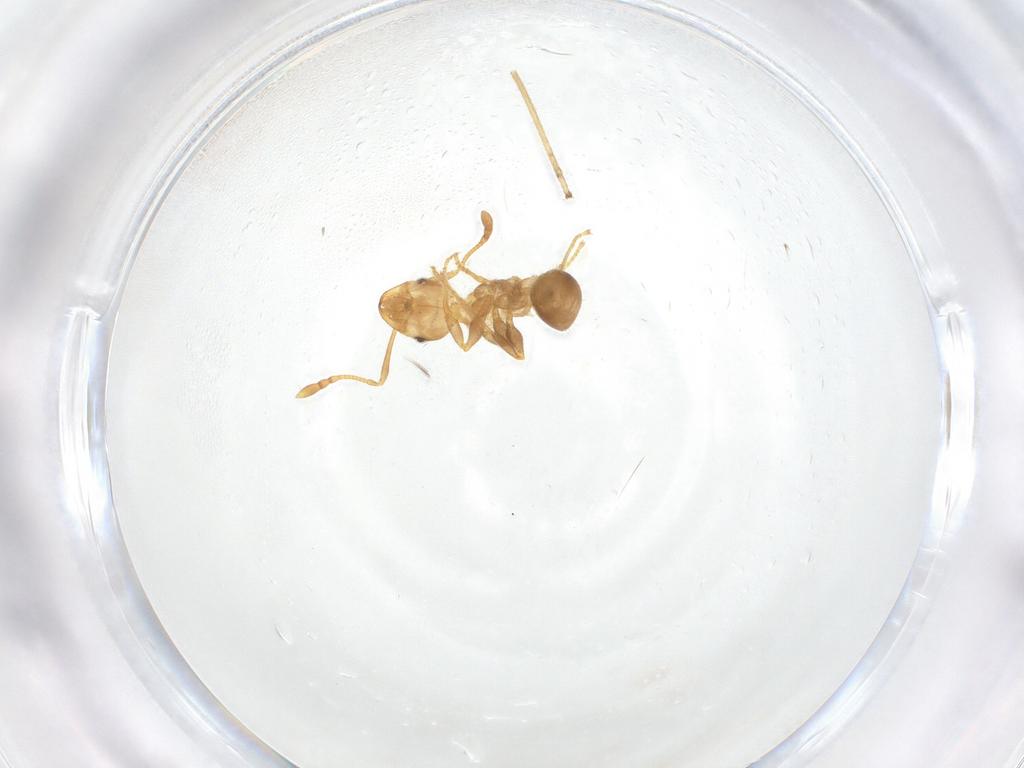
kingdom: Animalia
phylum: Arthropoda
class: Insecta
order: Hymenoptera
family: Formicidae
